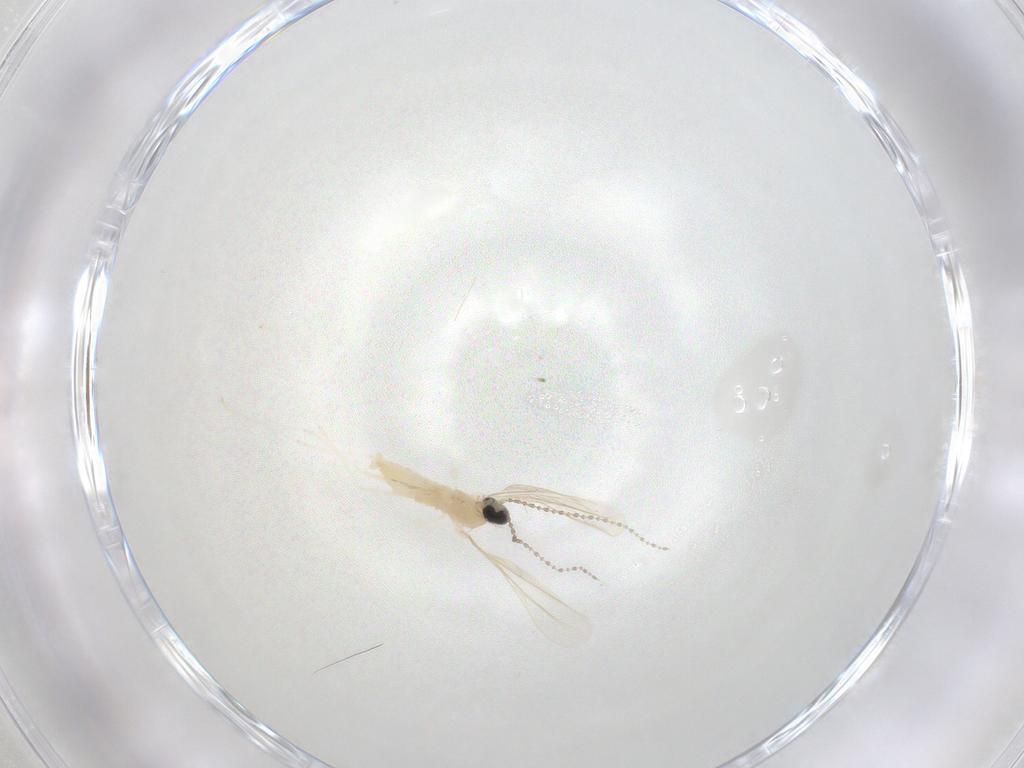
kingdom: Animalia
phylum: Arthropoda
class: Insecta
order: Diptera
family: Cecidomyiidae
